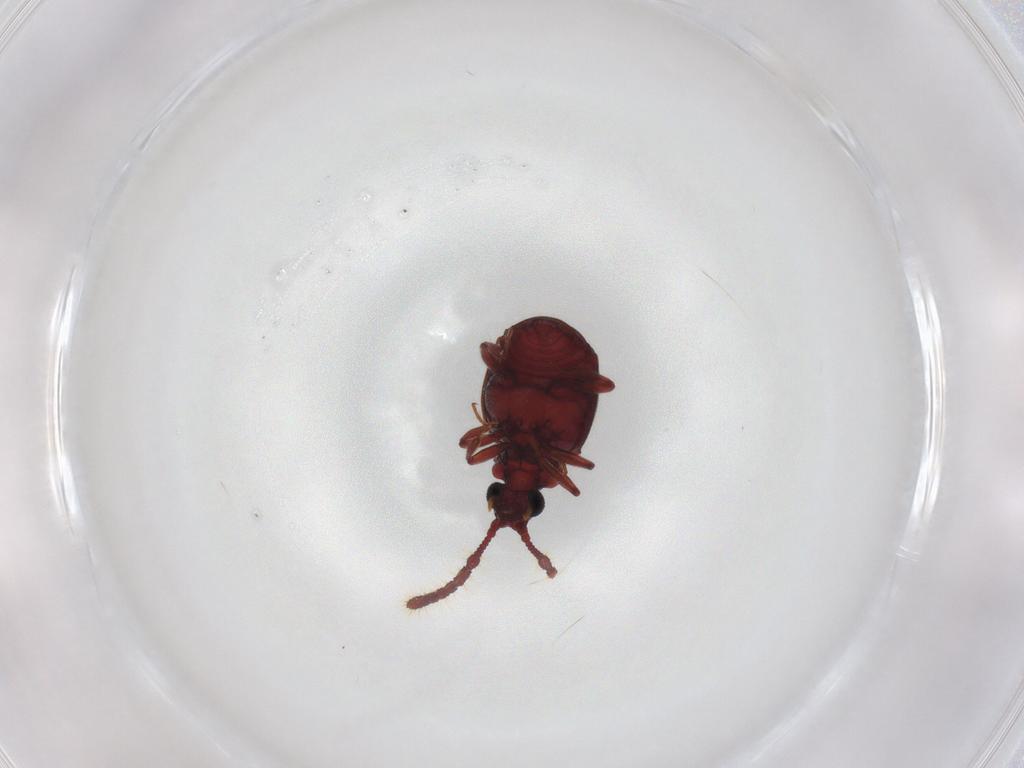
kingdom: Animalia
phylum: Arthropoda
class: Insecta
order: Coleoptera
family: Staphylinidae
